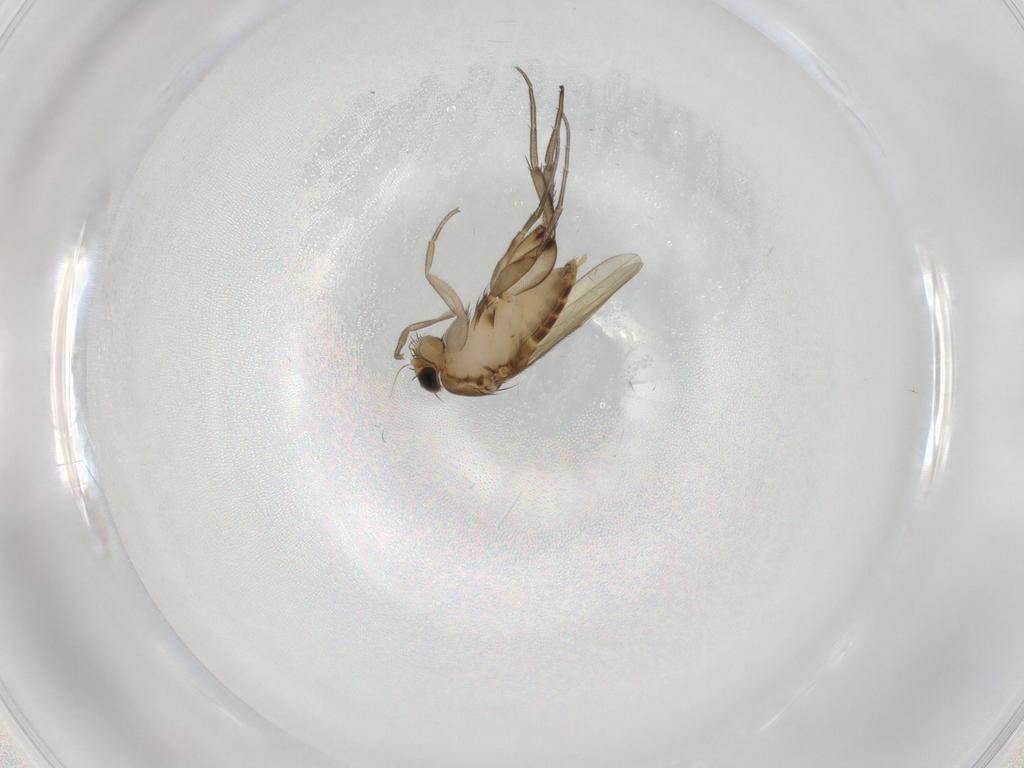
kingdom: Animalia
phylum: Arthropoda
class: Insecta
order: Diptera
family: Phoridae
